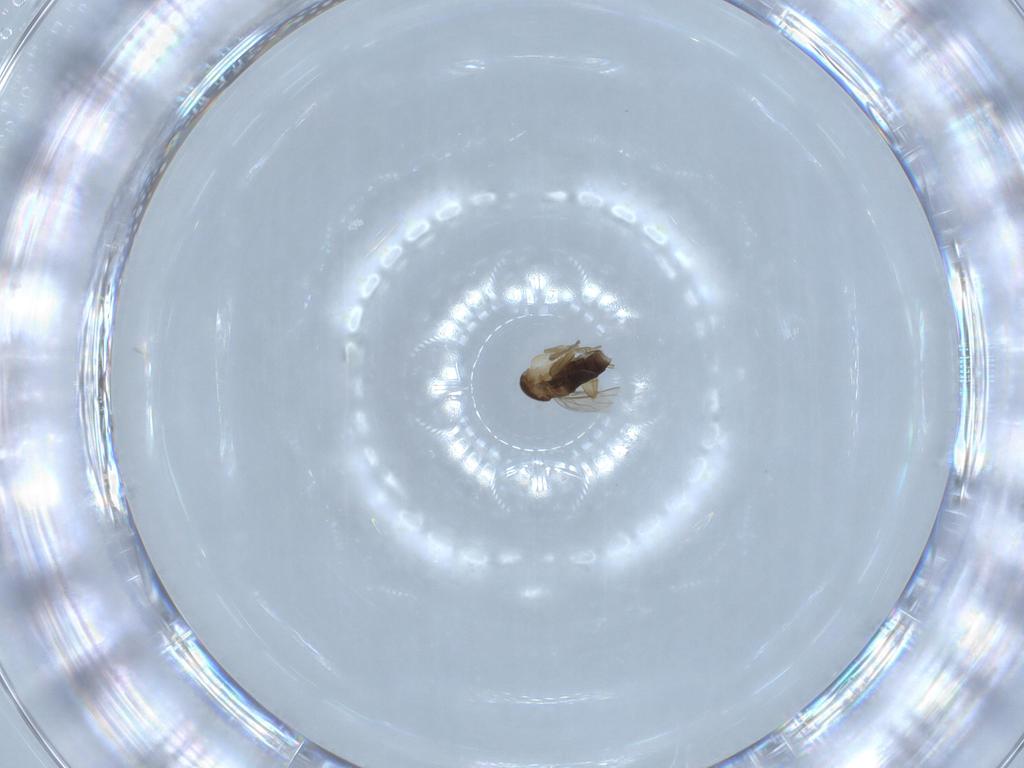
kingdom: Animalia
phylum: Arthropoda
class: Insecta
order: Diptera
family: Phoridae
